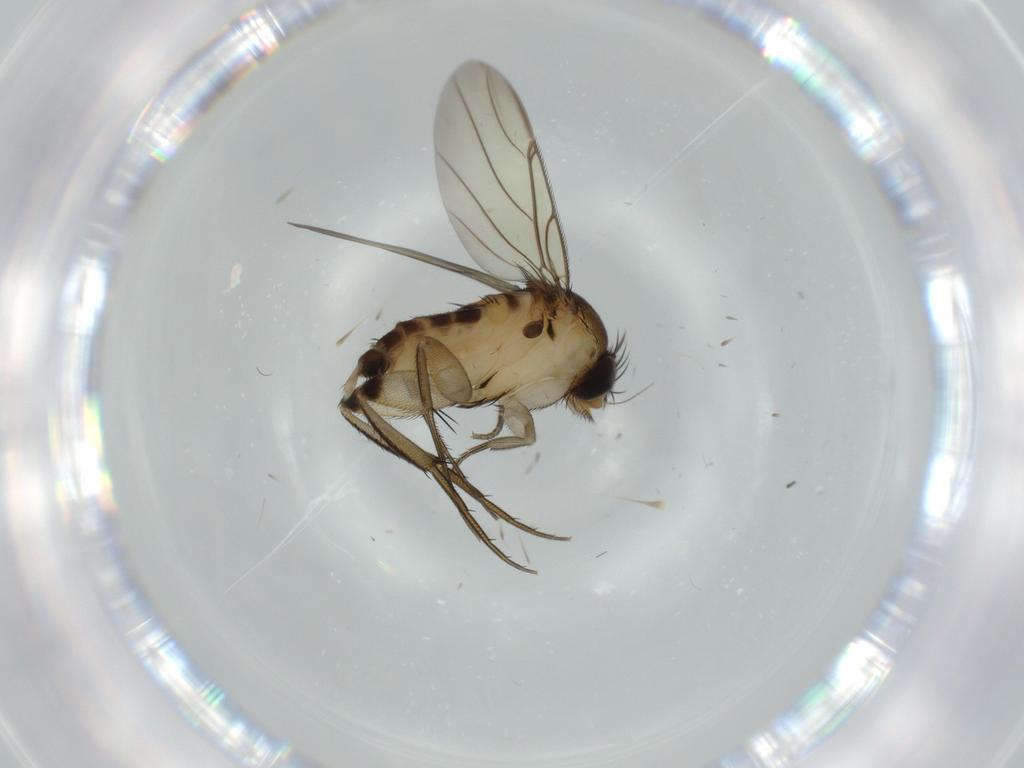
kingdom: Animalia
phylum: Arthropoda
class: Insecta
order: Diptera
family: Phoridae
